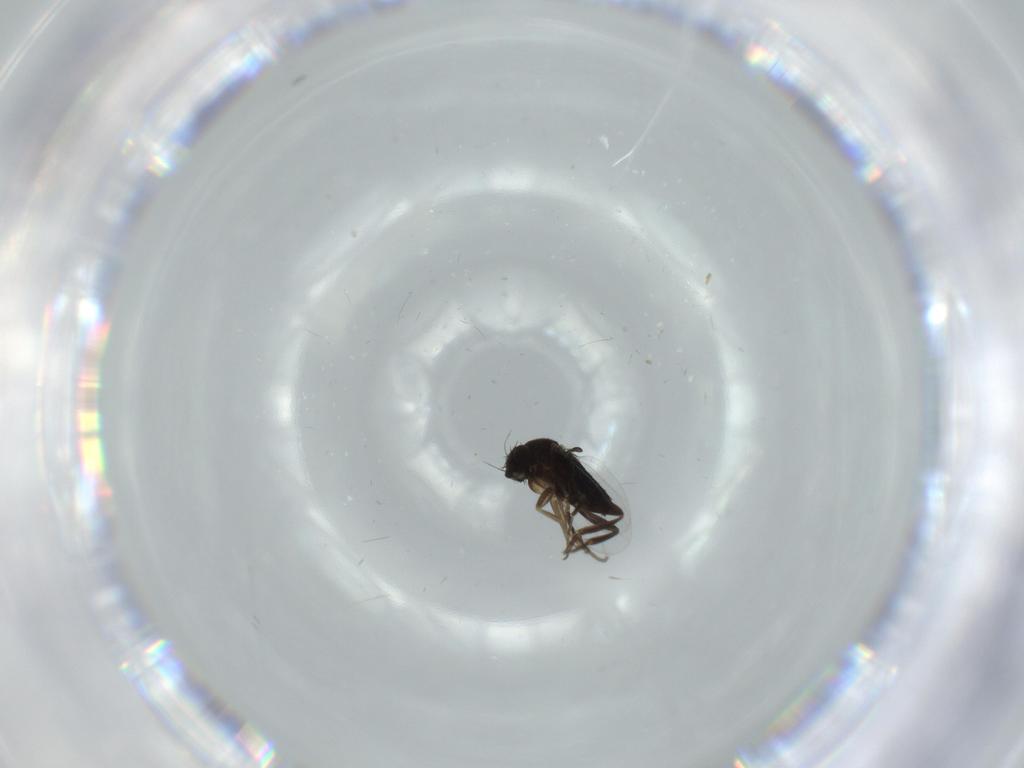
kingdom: Animalia
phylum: Arthropoda
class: Insecta
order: Diptera
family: Phoridae
